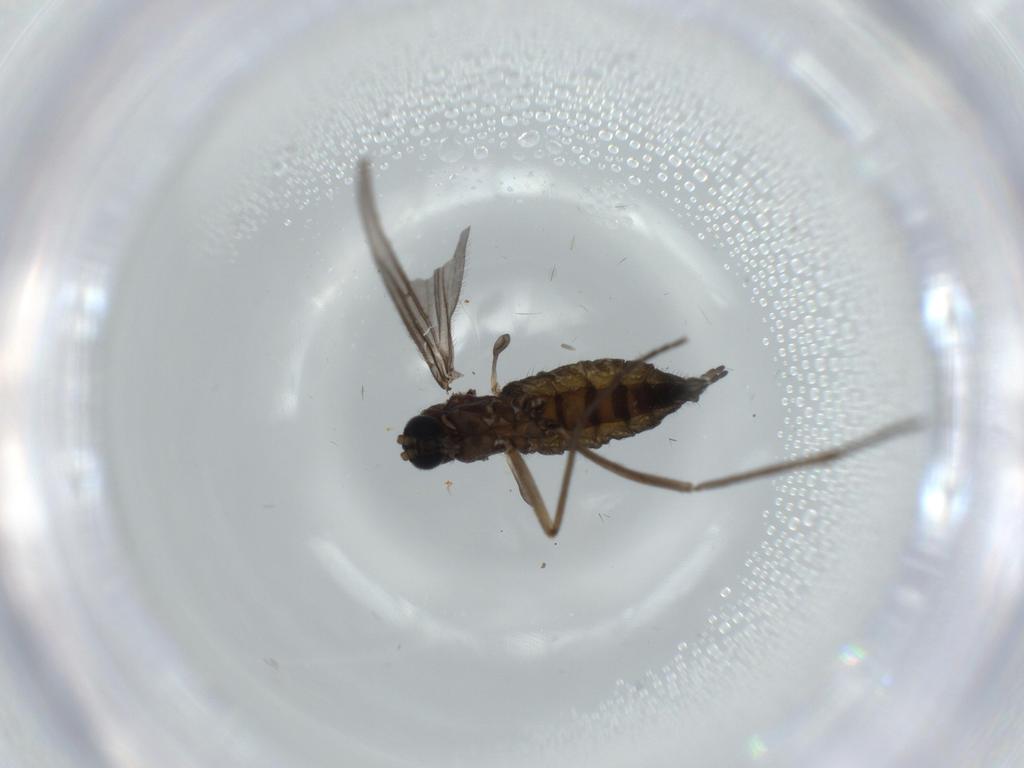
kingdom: Animalia
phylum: Arthropoda
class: Insecta
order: Diptera
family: Sciaridae
